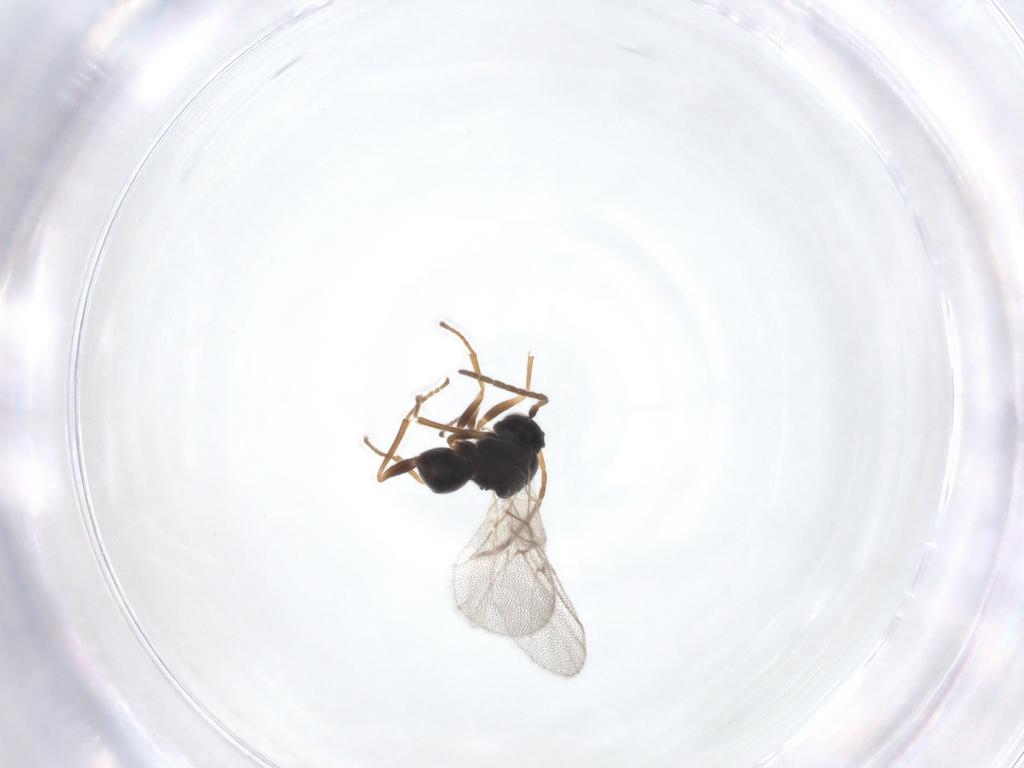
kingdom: Animalia
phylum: Arthropoda
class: Insecta
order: Hymenoptera
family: Cynipidae
